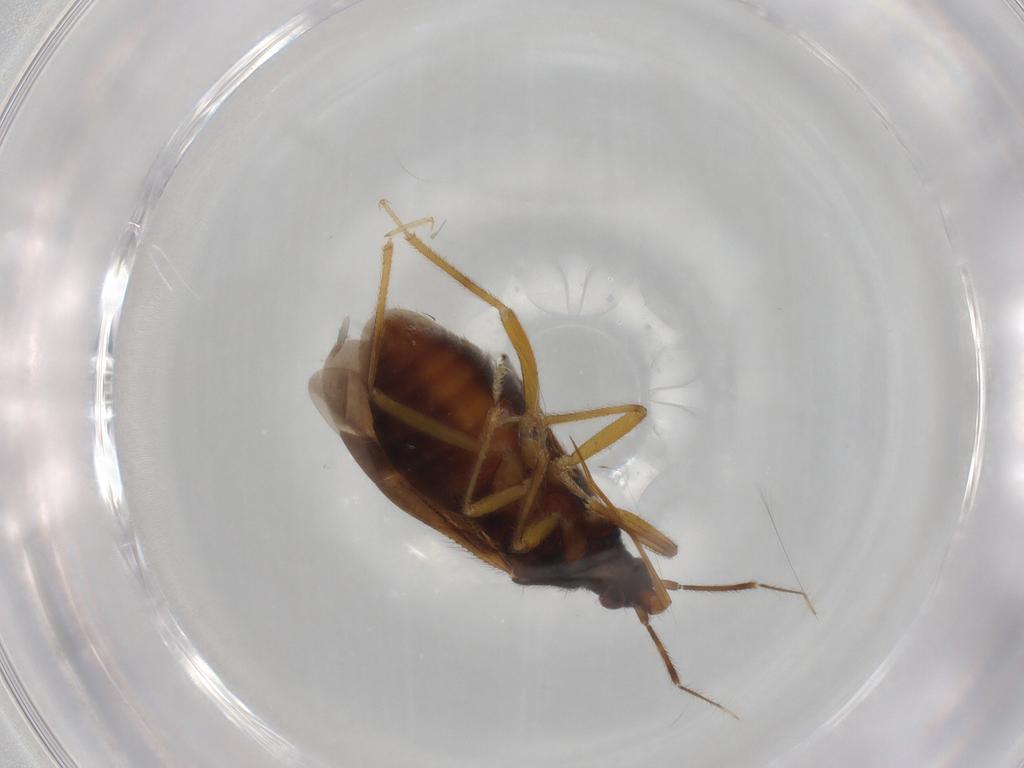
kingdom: Animalia
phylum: Arthropoda
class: Insecta
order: Hemiptera
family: Anthocoridae
